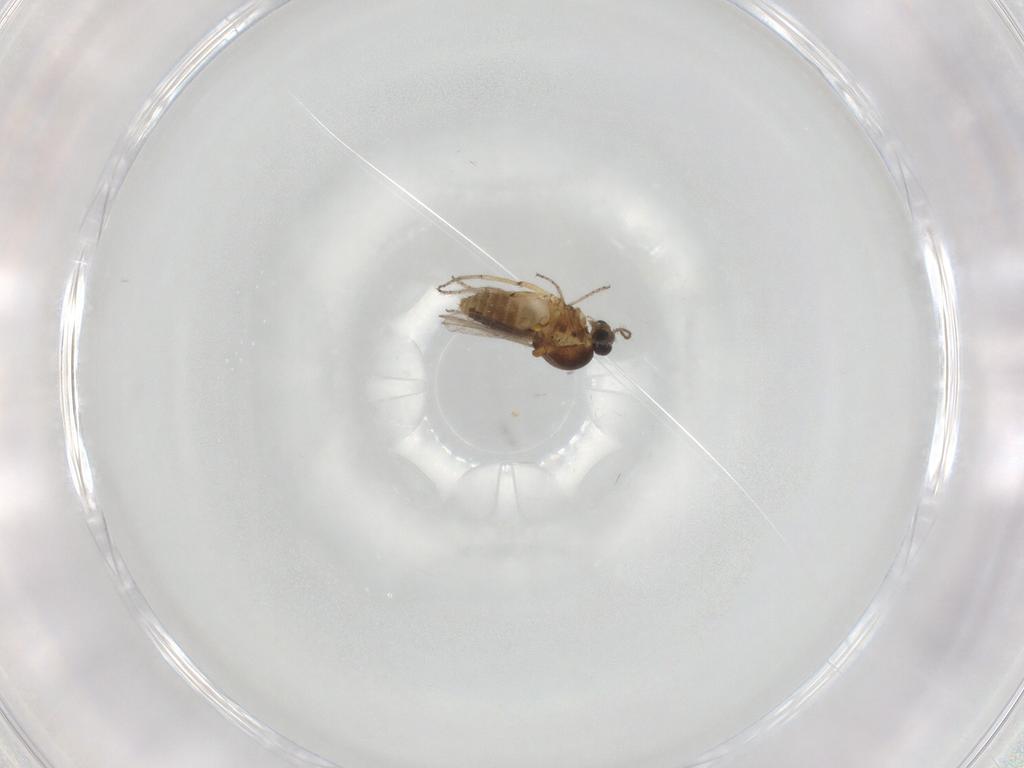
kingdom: Animalia
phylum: Arthropoda
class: Insecta
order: Diptera
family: Ceratopogonidae
